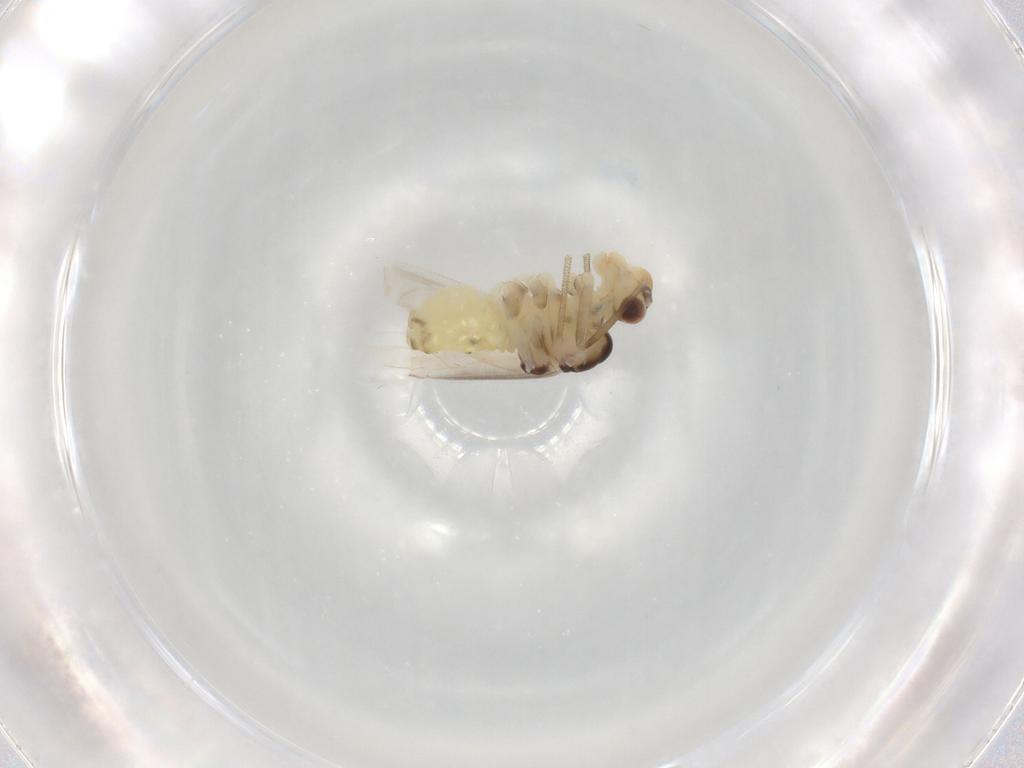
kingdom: Animalia
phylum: Arthropoda
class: Insecta
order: Psocodea
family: Caeciliusidae
